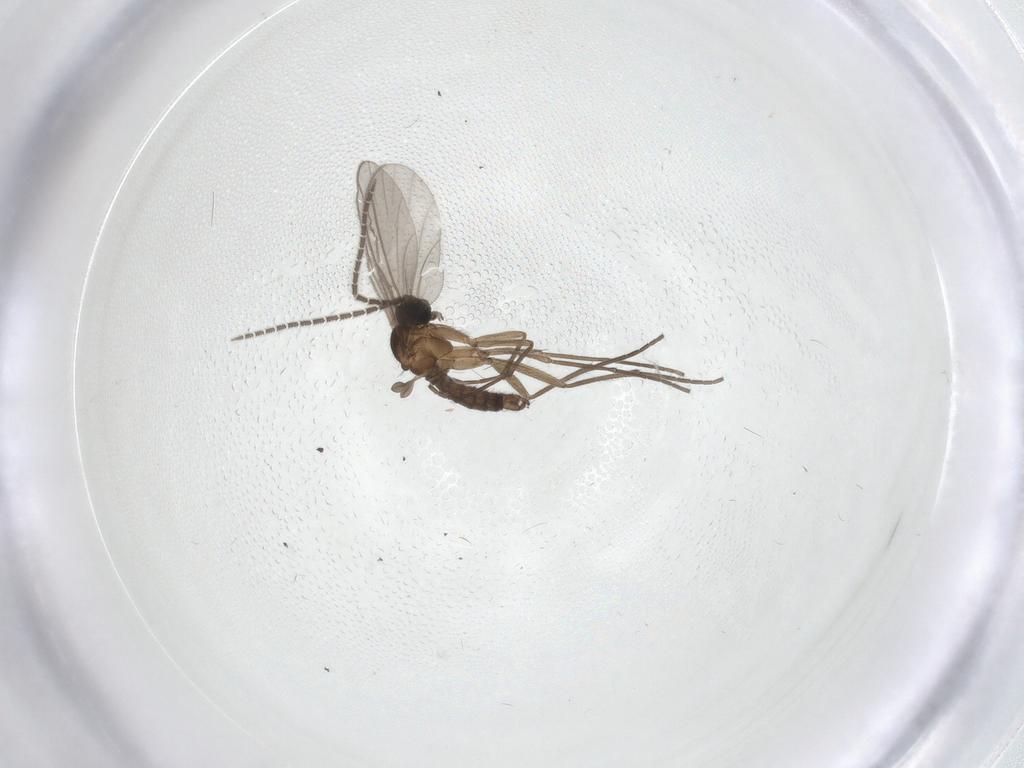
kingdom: Animalia
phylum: Arthropoda
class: Insecta
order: Diptera
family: Sciaridae
